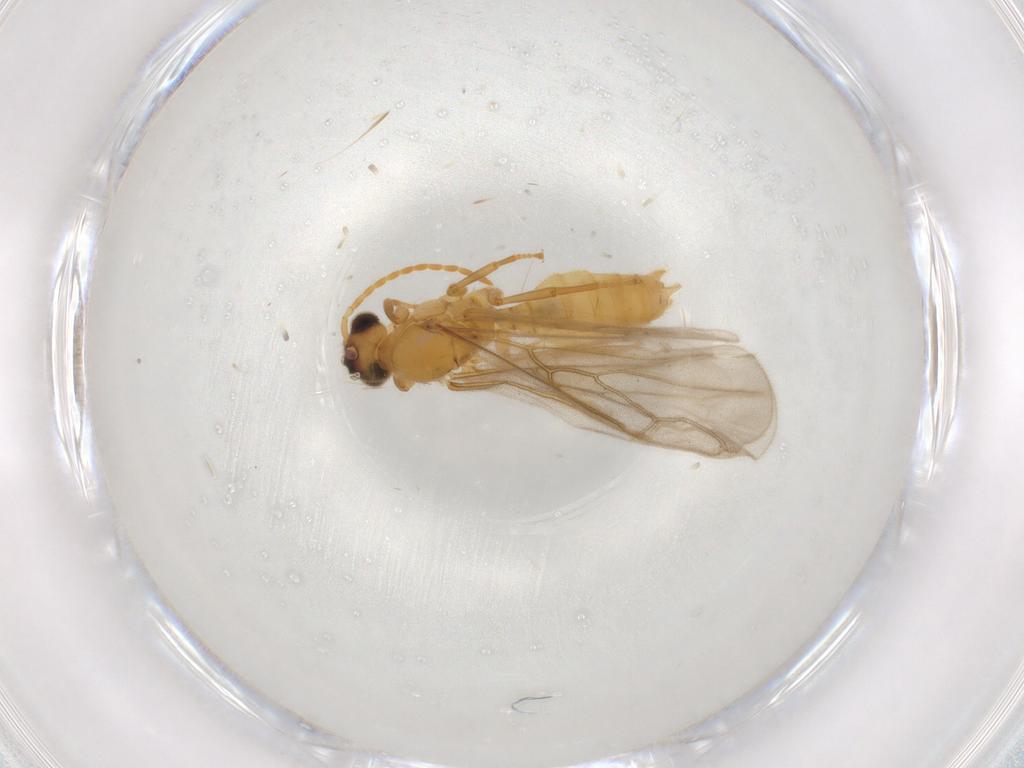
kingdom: Animalia
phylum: Arthropoda
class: Insecta
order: Hymenoptera
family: Formicidae
